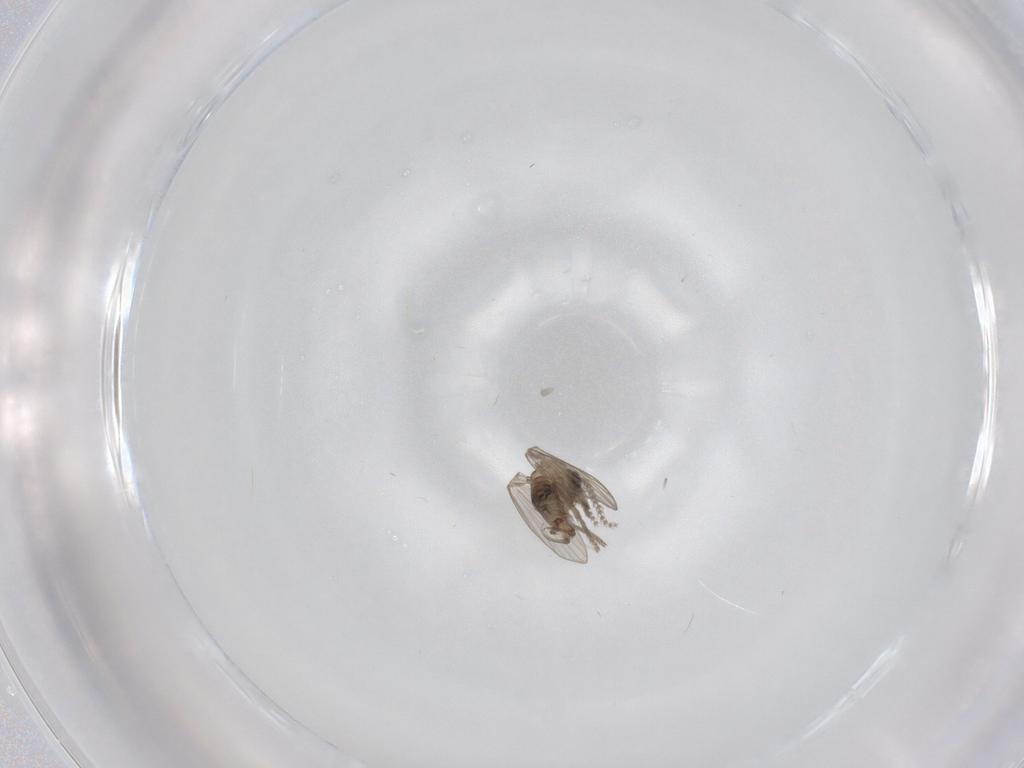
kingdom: Animalia
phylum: Arthropoda
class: Insecta
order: Diptera
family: Psychodidae
